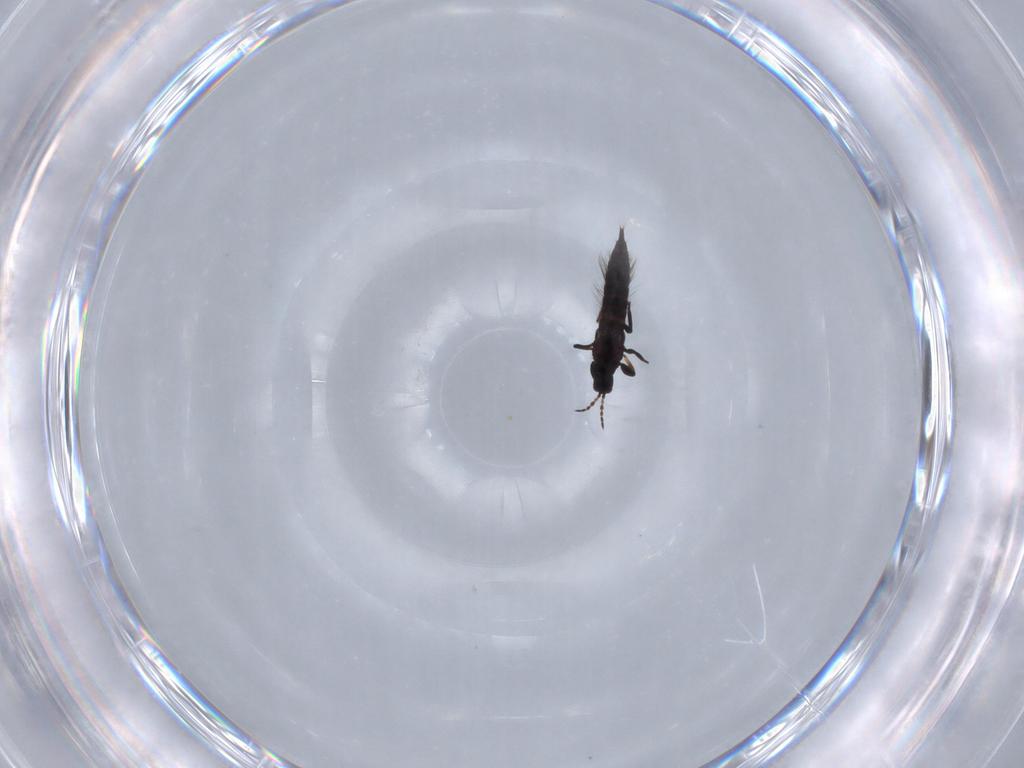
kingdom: Animalia
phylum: Arthropoda
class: Insecta
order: Thysanoptera
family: Phlaeothripidae
